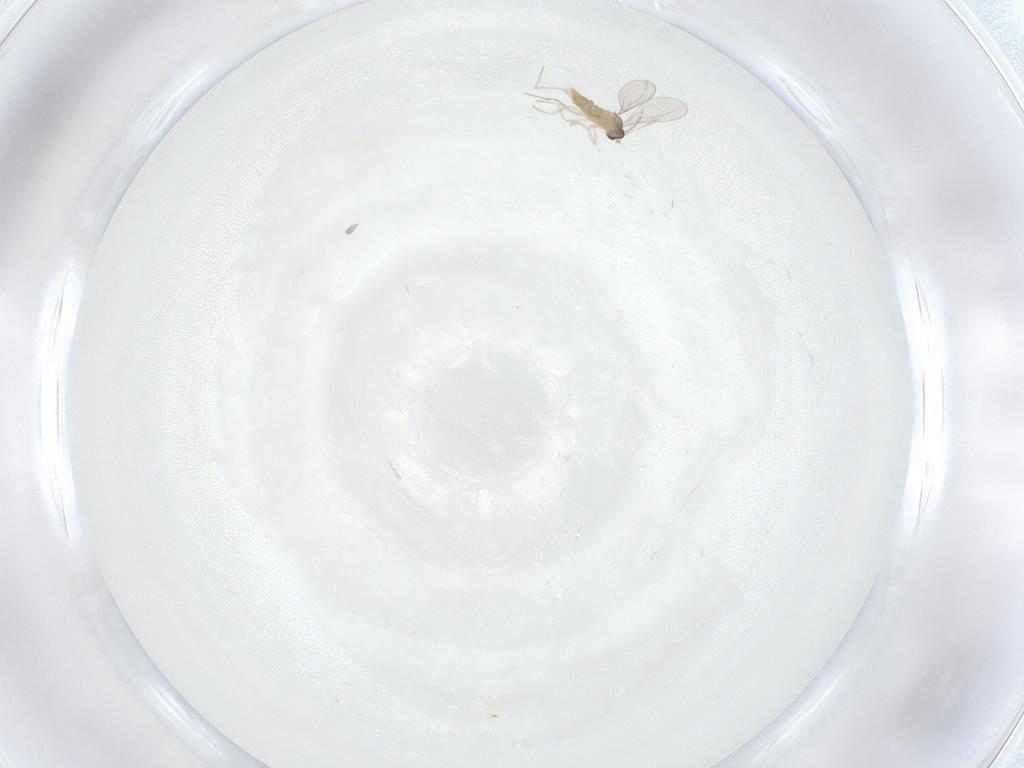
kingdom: Animalia
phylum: Arthropoda
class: Insecta
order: Diptera
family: Cecidomyiidae
